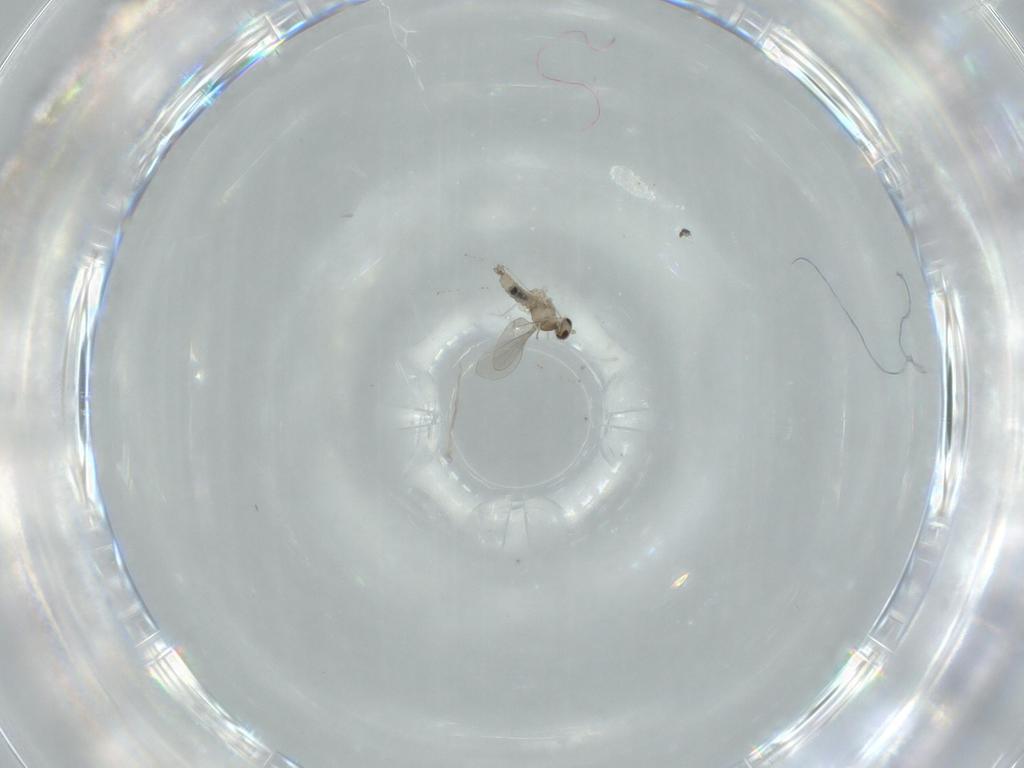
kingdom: Animalia
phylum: Arthropoda
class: Insecta
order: Diptera
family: Cecidomyiidae
